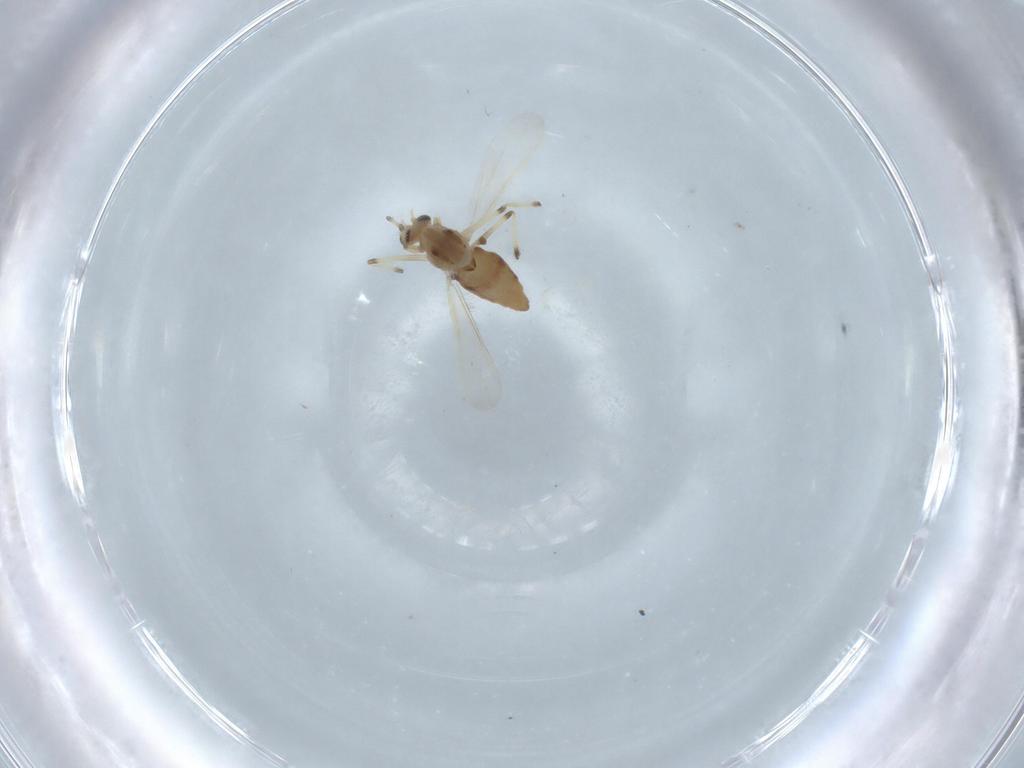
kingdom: Animalia
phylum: Arthropoda
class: Insecta
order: Diptera
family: Chironomidae
